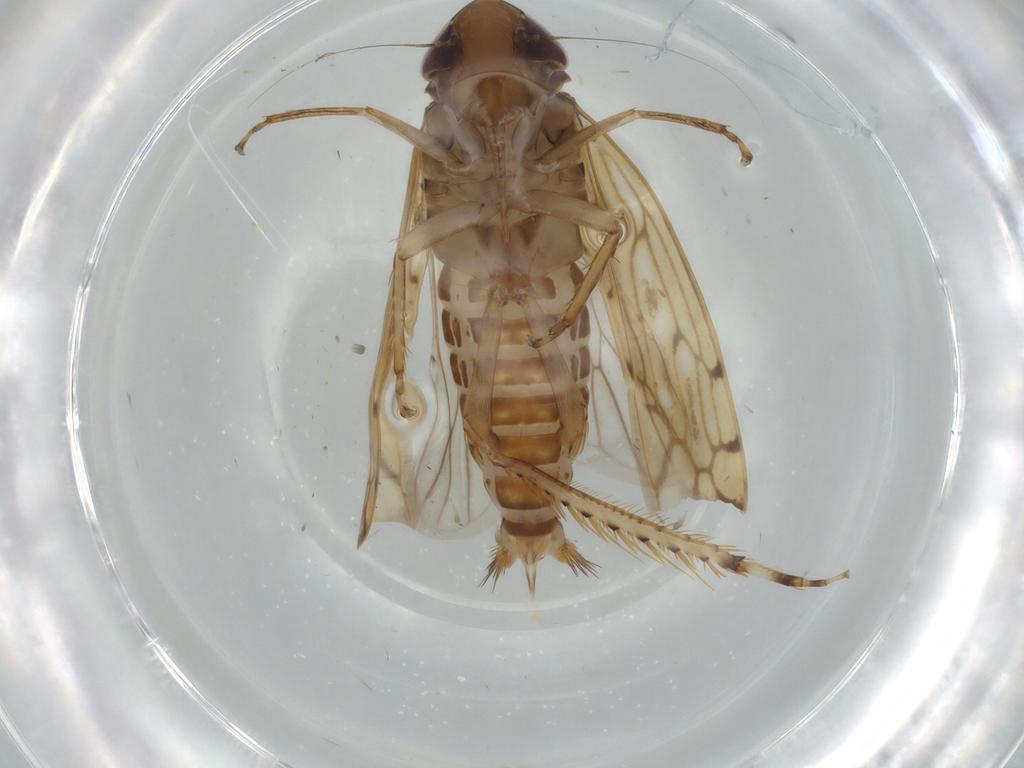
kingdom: Animalia
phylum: Arthropoda
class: Insecta
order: Hemiptera
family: Cicadellidae
